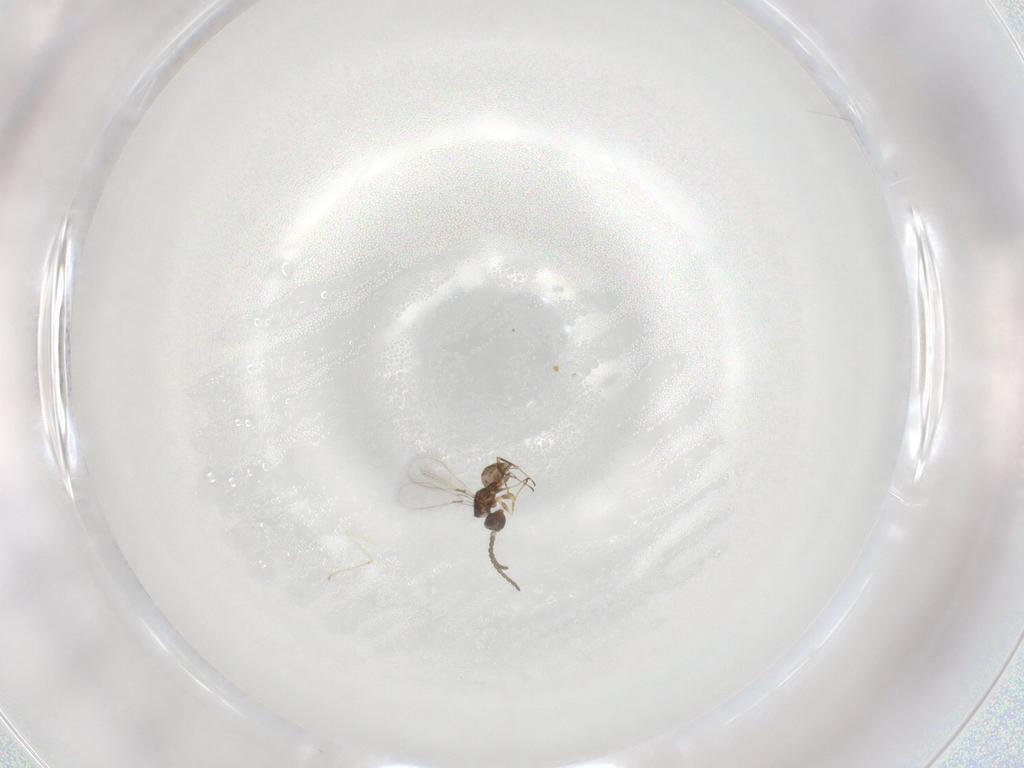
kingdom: Animalia
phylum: Arthropoda
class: Insecta
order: Hymenoptera
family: Mymaridae
